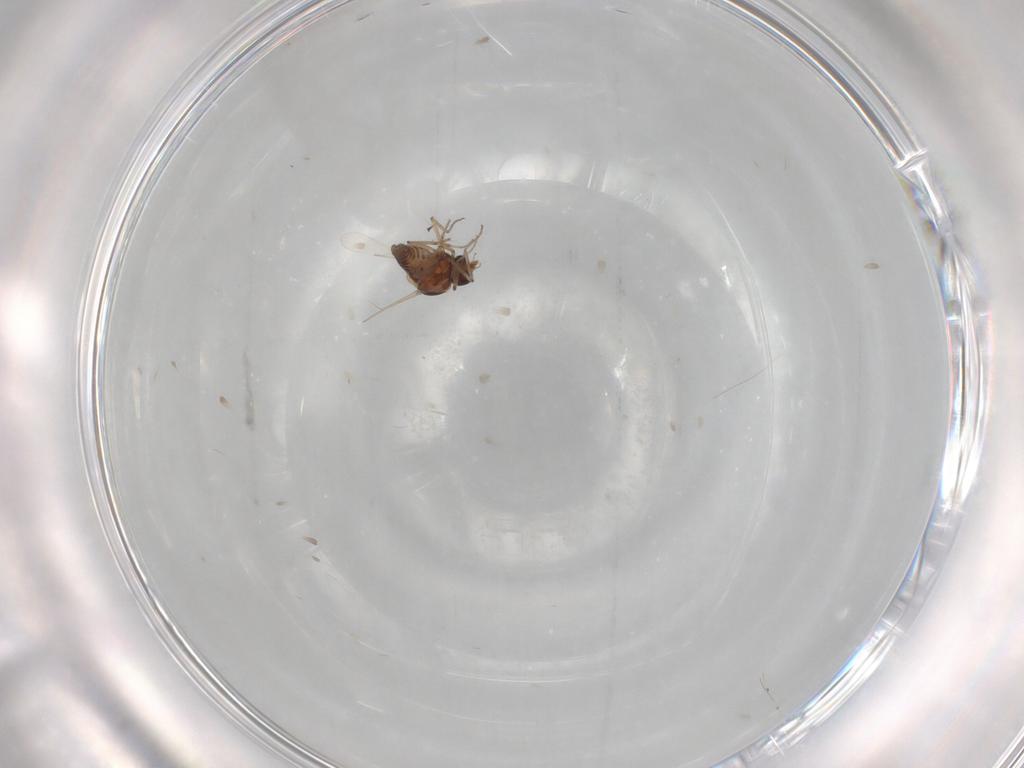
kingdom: Animalia
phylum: Arthropoda
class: Insecta
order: Diptera
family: Ceratopogonidae
